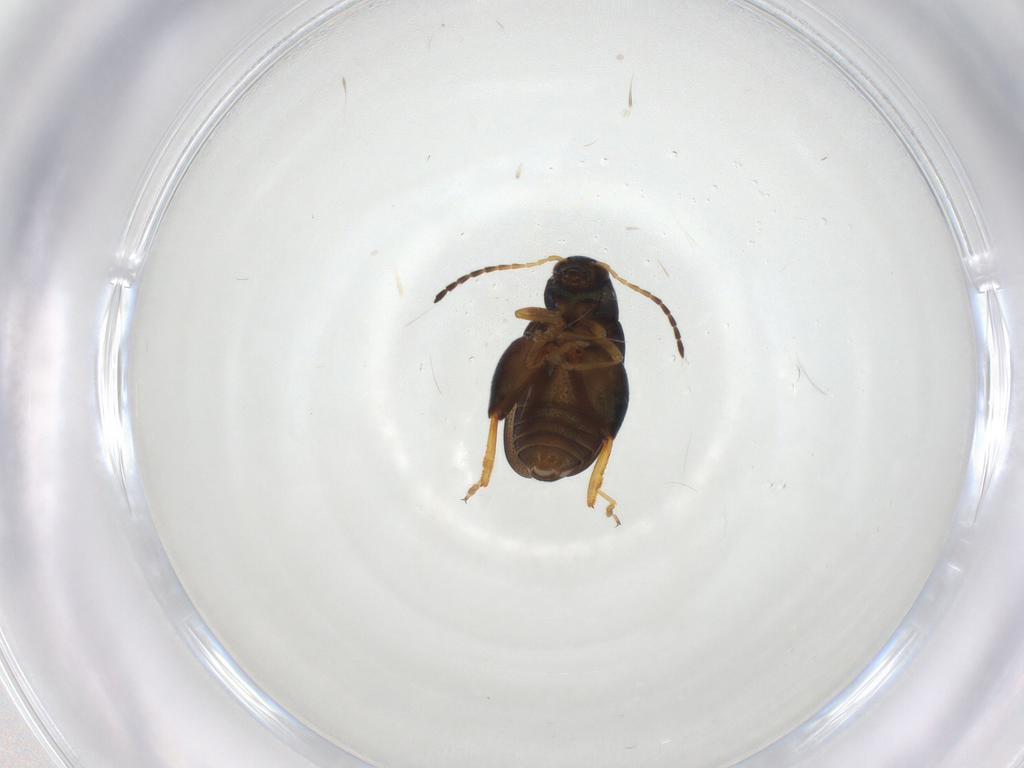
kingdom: Animalia
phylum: Arthropoda
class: Insecta
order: Coleoptera
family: Chrysomelidae
